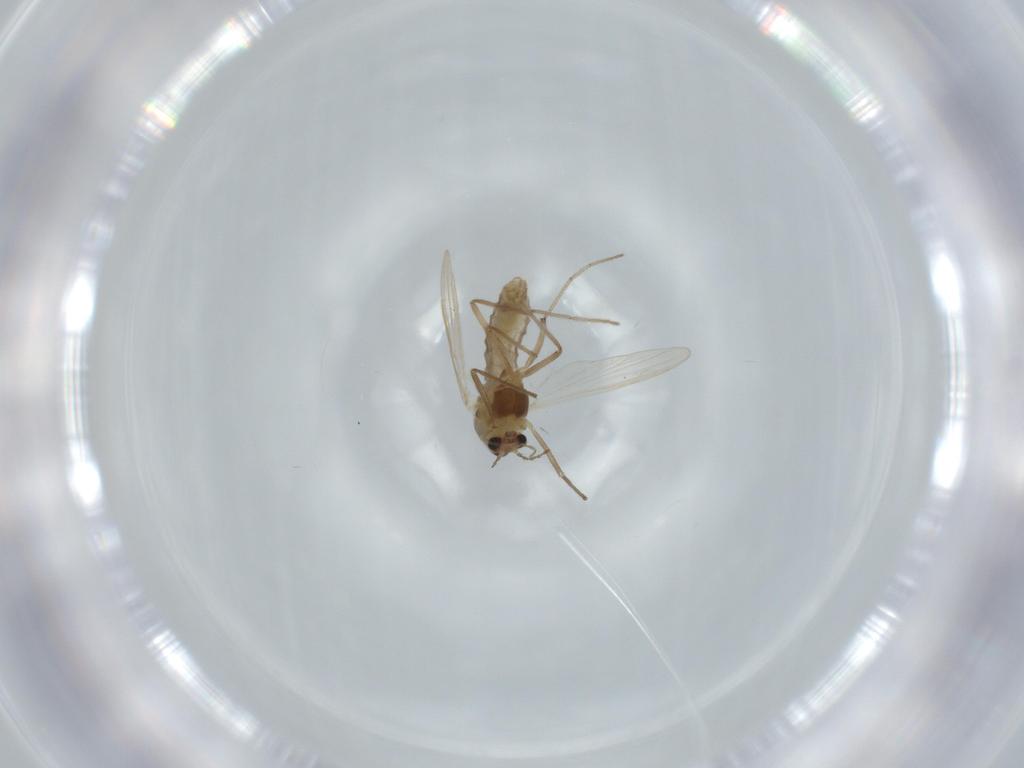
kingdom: Animalia
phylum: Arthropoda
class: Insecta
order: Diptera
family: Chironomidae
